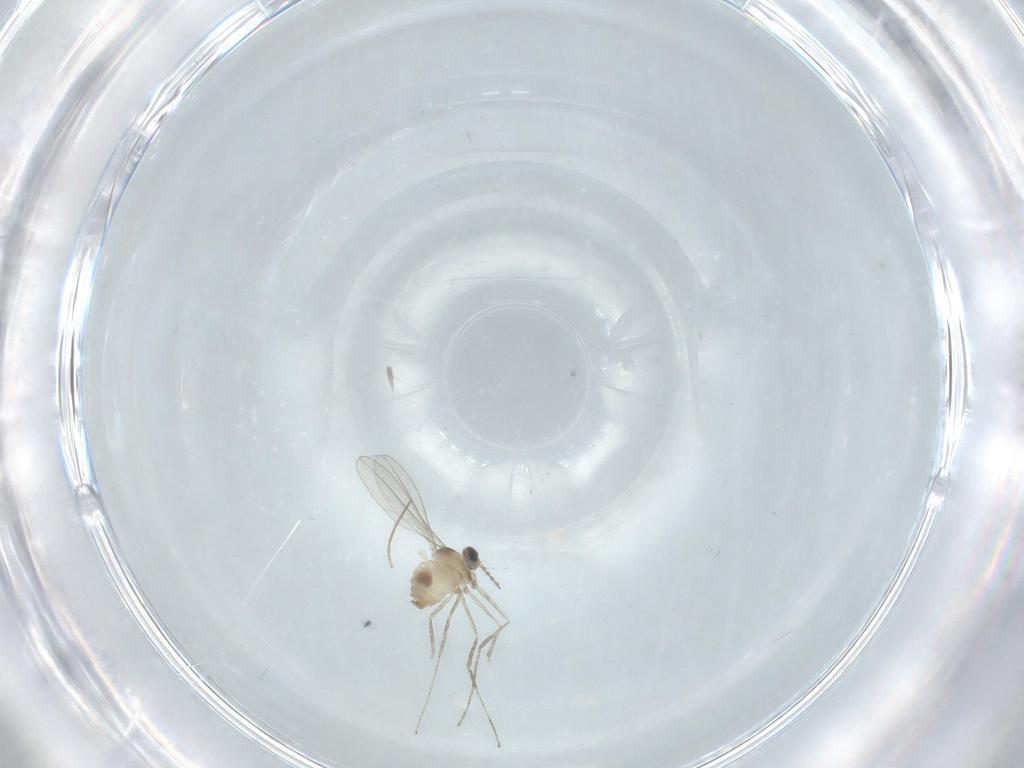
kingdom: Animalia
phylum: Arthropoda
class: Insecta
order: Diptera
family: Cecidomyiidae
